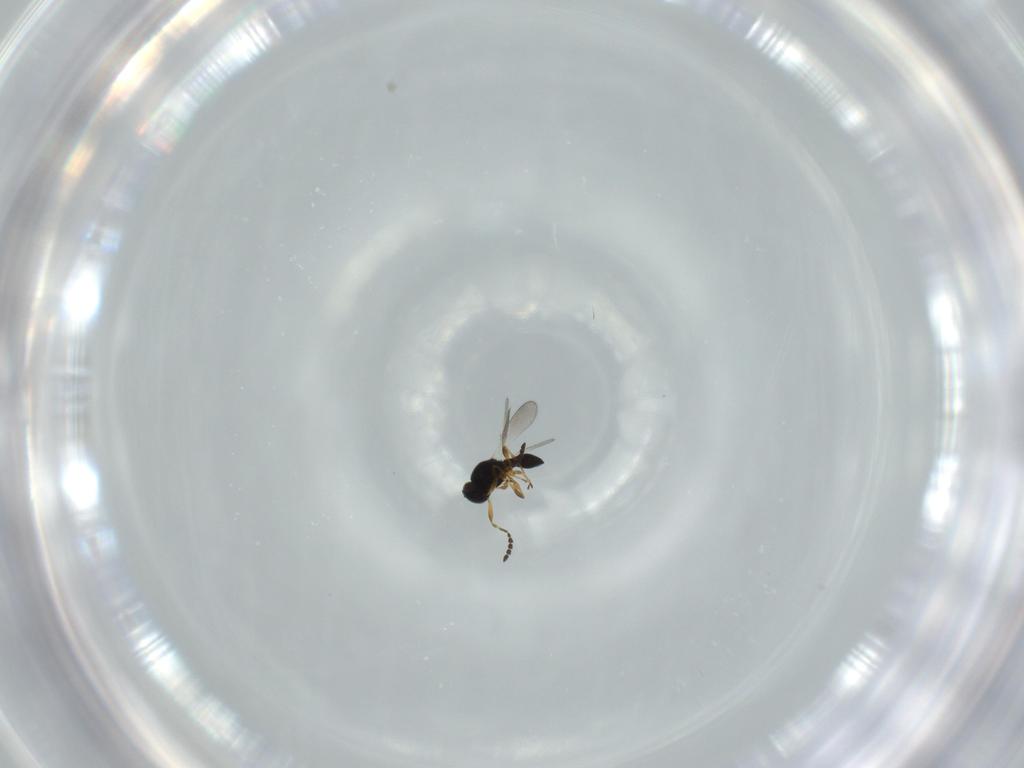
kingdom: Animalia
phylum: Arthropoda
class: Insecta
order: Hymenoptera
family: Platygastridae
